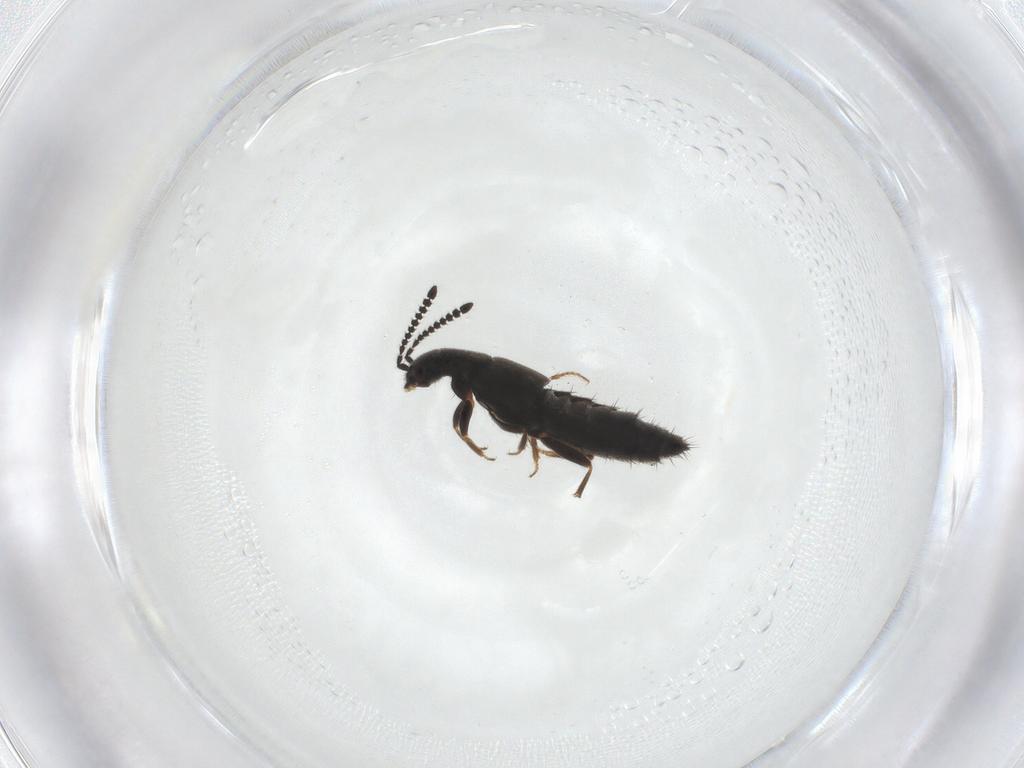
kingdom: Animalia
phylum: Arthropoda
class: Insecta
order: Coleoptera
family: Staphylinidae
